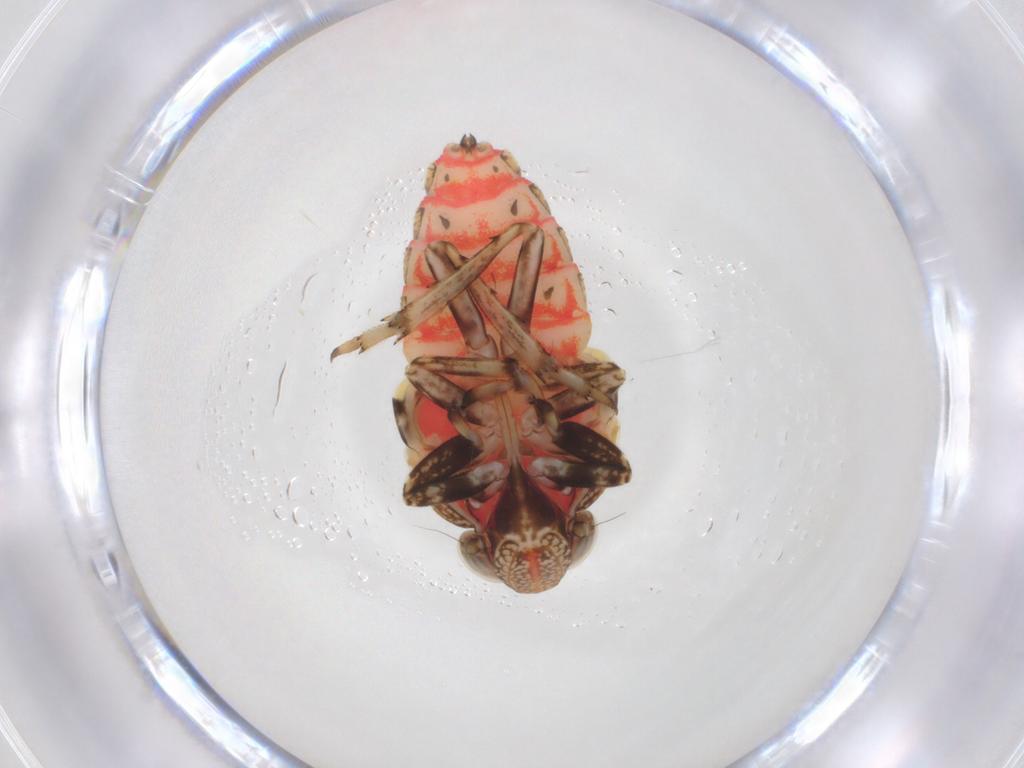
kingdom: Animalia
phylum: Arthropoda
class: Insecta
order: Hemiptera
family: Issidae
